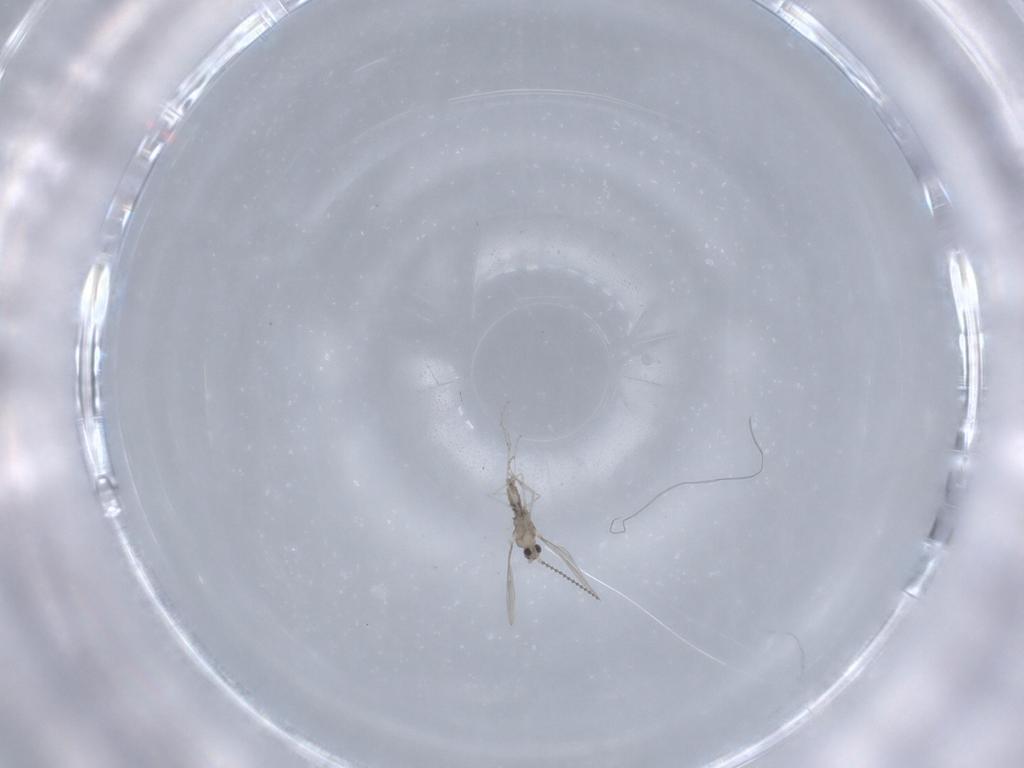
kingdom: Animalia
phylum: Arthropoda
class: Insecta
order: Diptera
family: Cecidomyiidae
